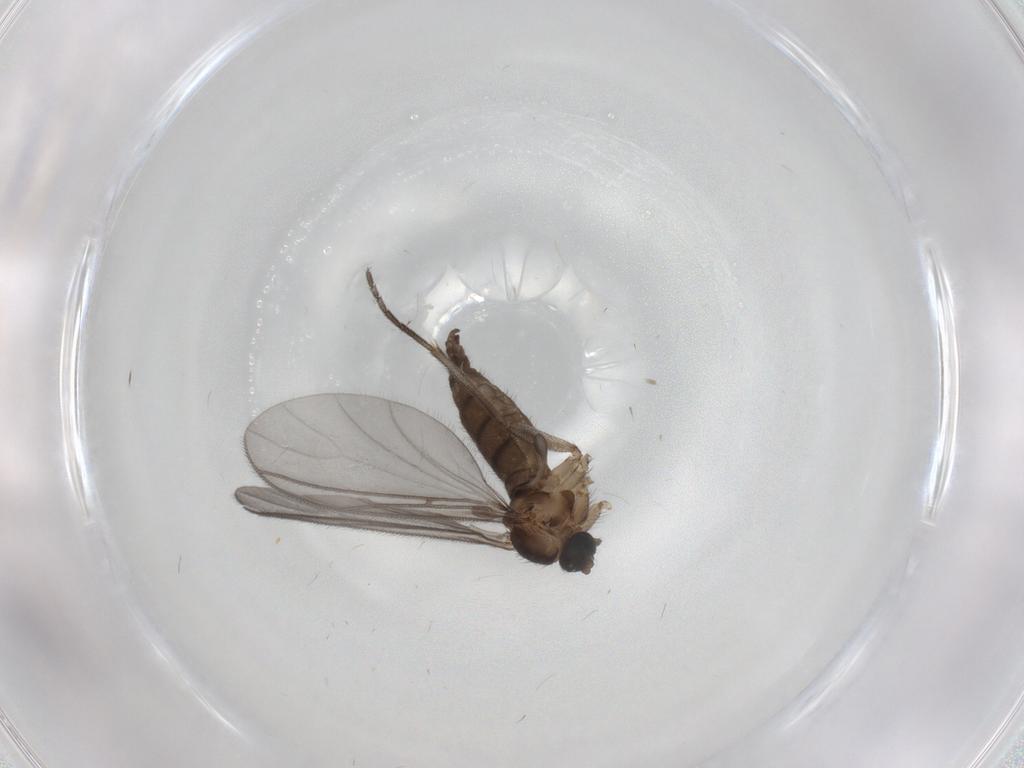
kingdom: Animalia
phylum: Arthropoda
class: Insecta
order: Diptera
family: Sciaridae
